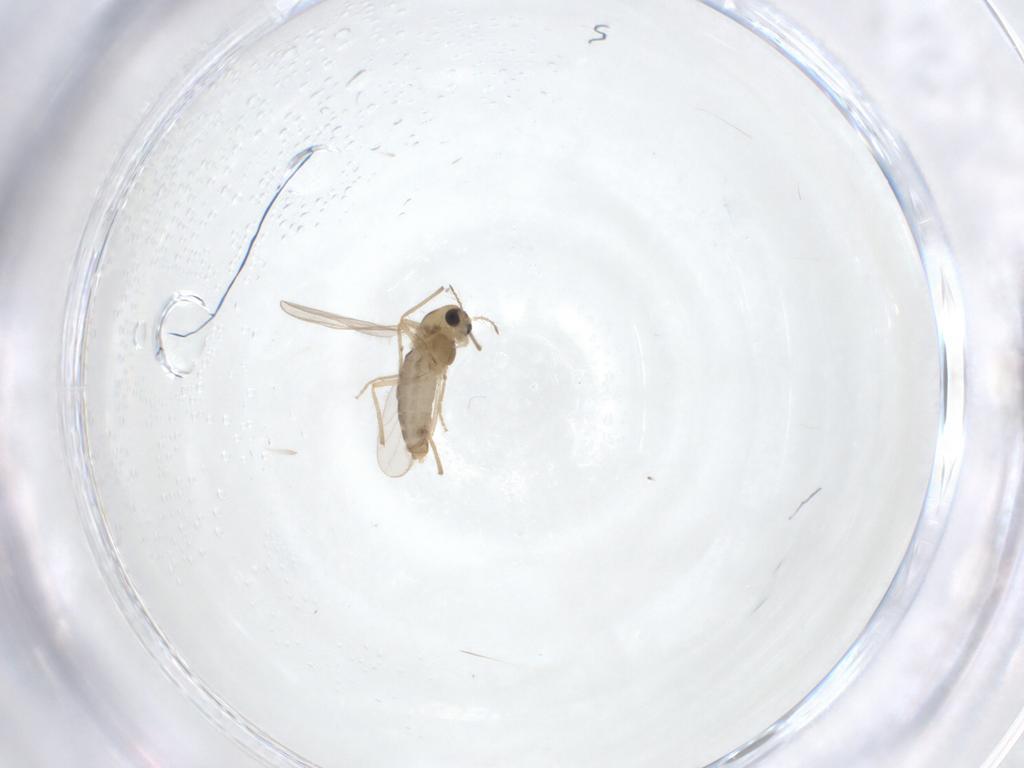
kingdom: Animalia
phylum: Arthropoda
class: Insecta
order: Diptera
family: Chironomidae
